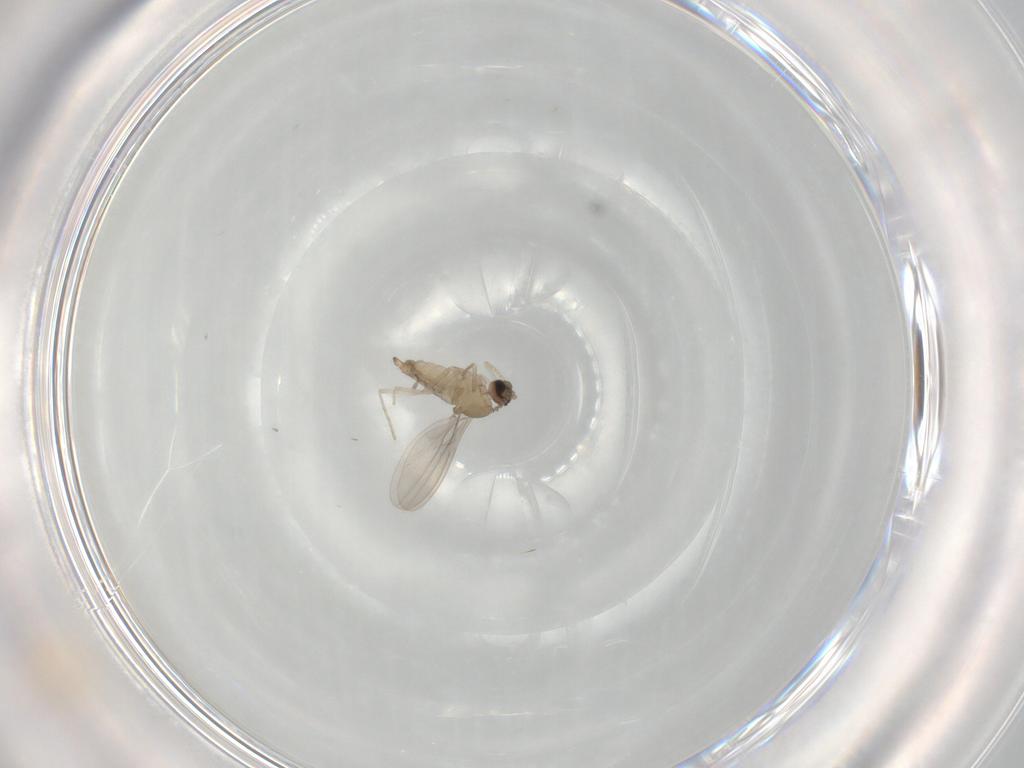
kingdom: Animalia
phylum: Arthropoda
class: Insecta
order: Diptera
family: Cecidomyiidae
